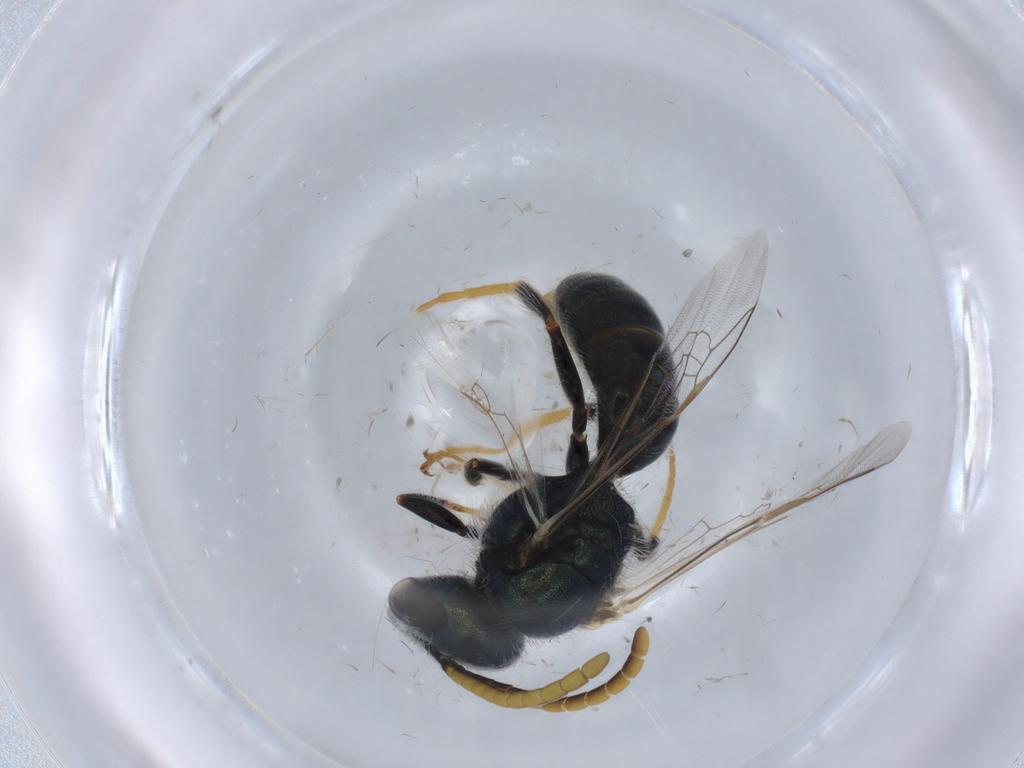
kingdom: Animalia
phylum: Arthropoda
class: Insecta
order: Hymenoptera
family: Halictidae
